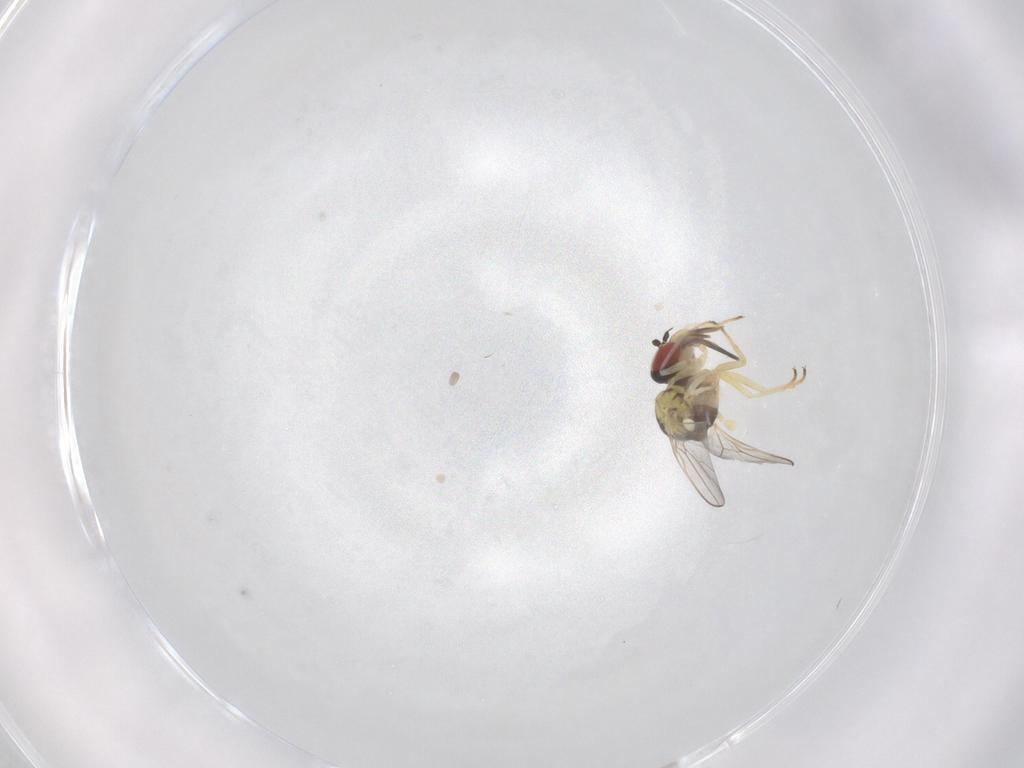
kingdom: Animalia
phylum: Arthropoda
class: Insecta
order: Diptera
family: Bombyliidae
